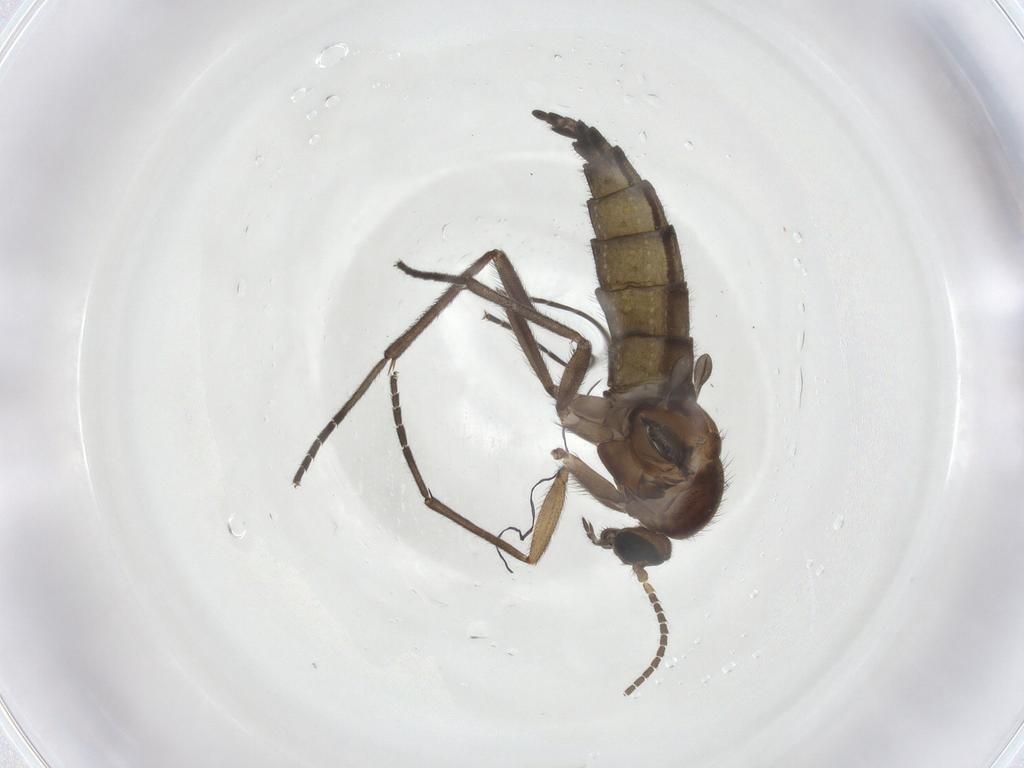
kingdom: Animalia
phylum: Arthropoda
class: Insecta
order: Diptera
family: Sciaridae
